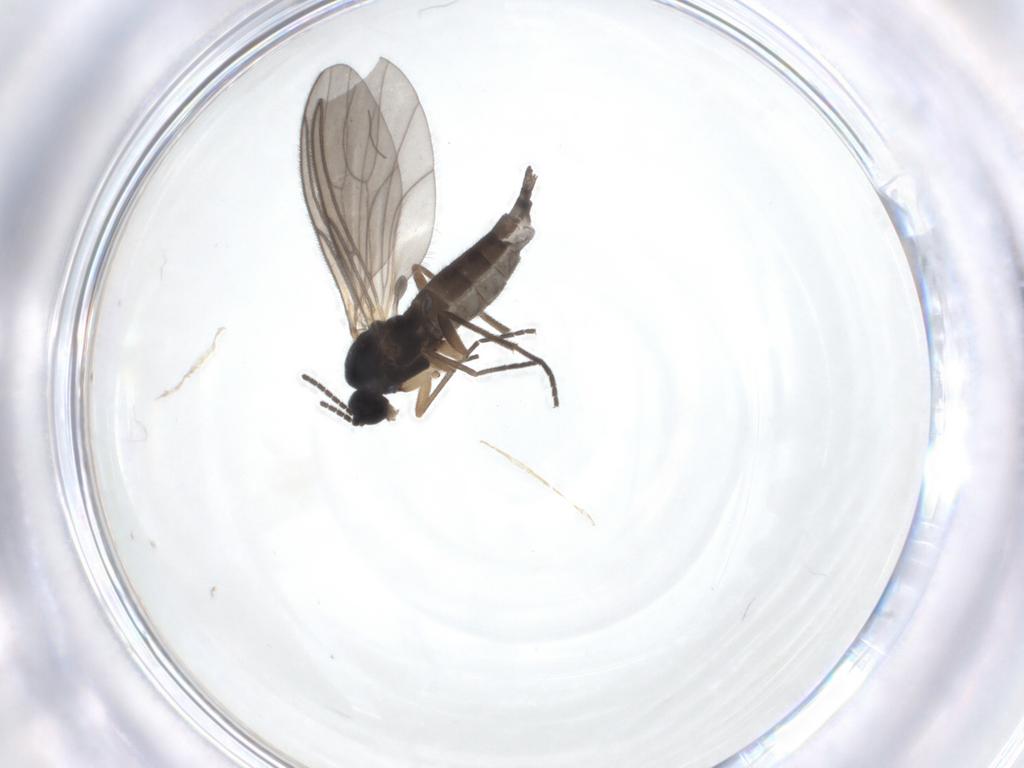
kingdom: Animalia
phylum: Arthropoda
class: Insecta
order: Diptera
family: Sciaridae
